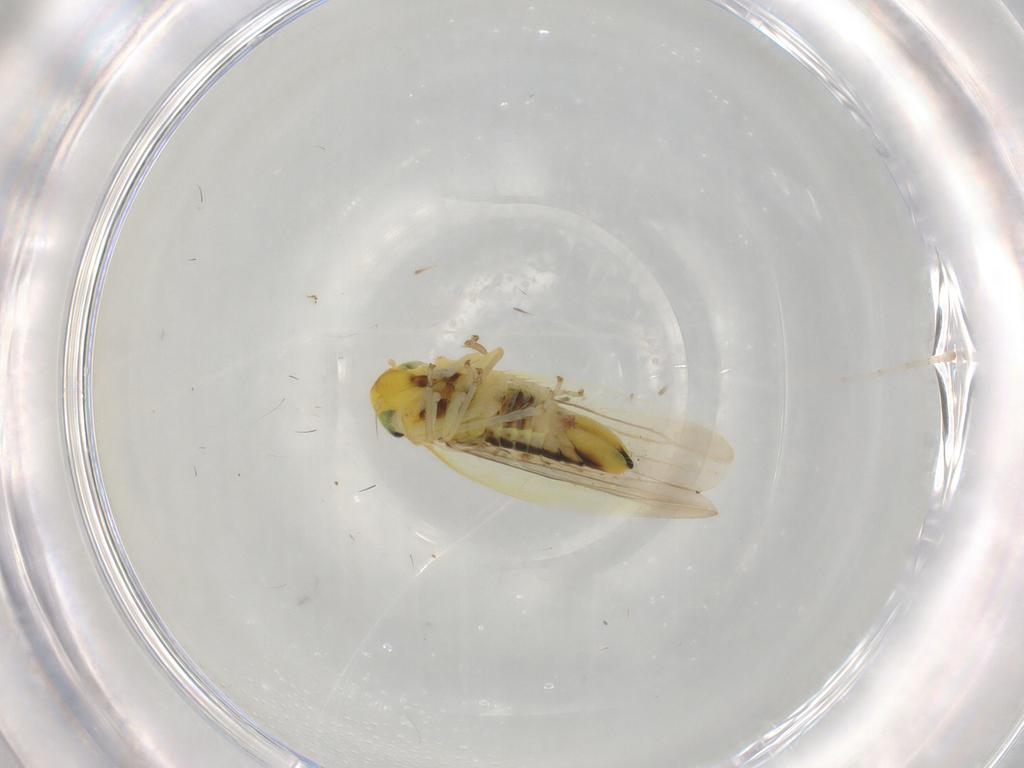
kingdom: Animalia
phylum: Arthropoda
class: Insecta
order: Hemiptera
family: Cicadellidae
